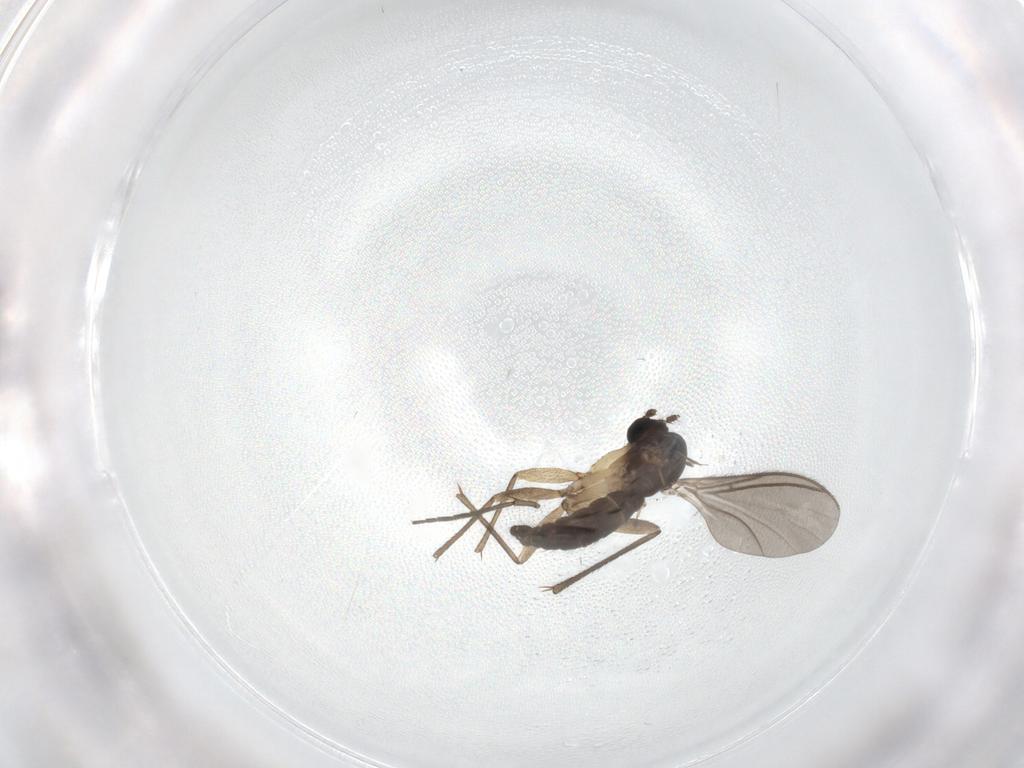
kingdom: Animalia
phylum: Arthropoda
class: Insecta
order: Diptera
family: Sciaridae
